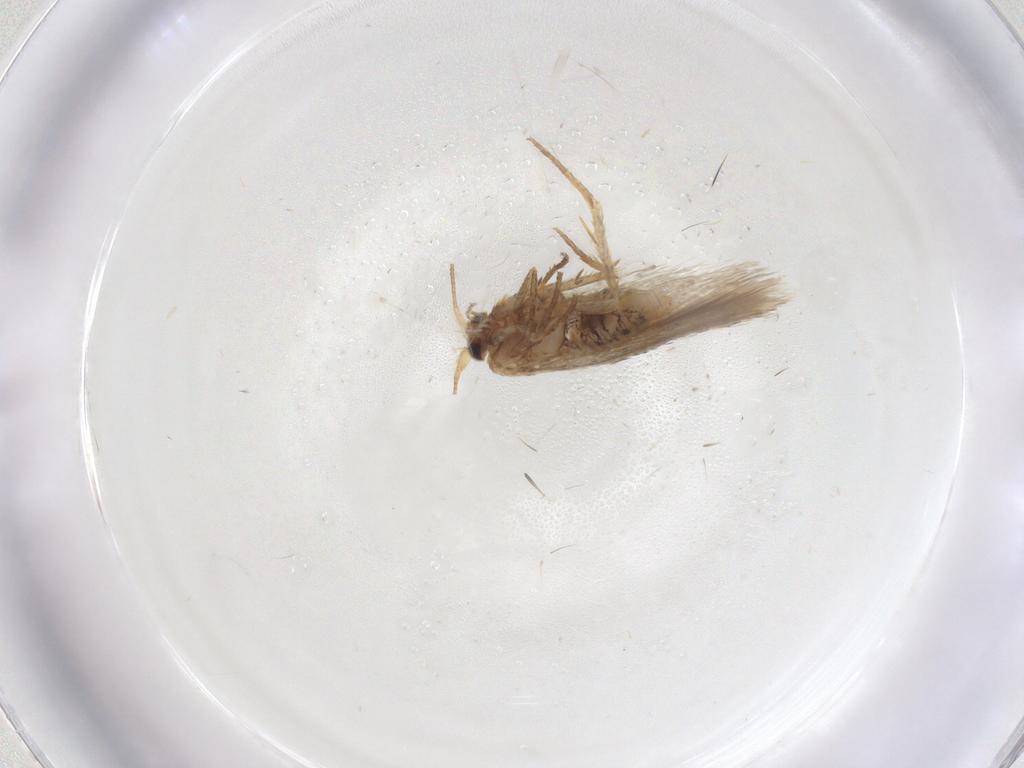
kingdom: Animalia
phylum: Arthropoda
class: Insecta
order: Lepidoptera
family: Nepticulidae
